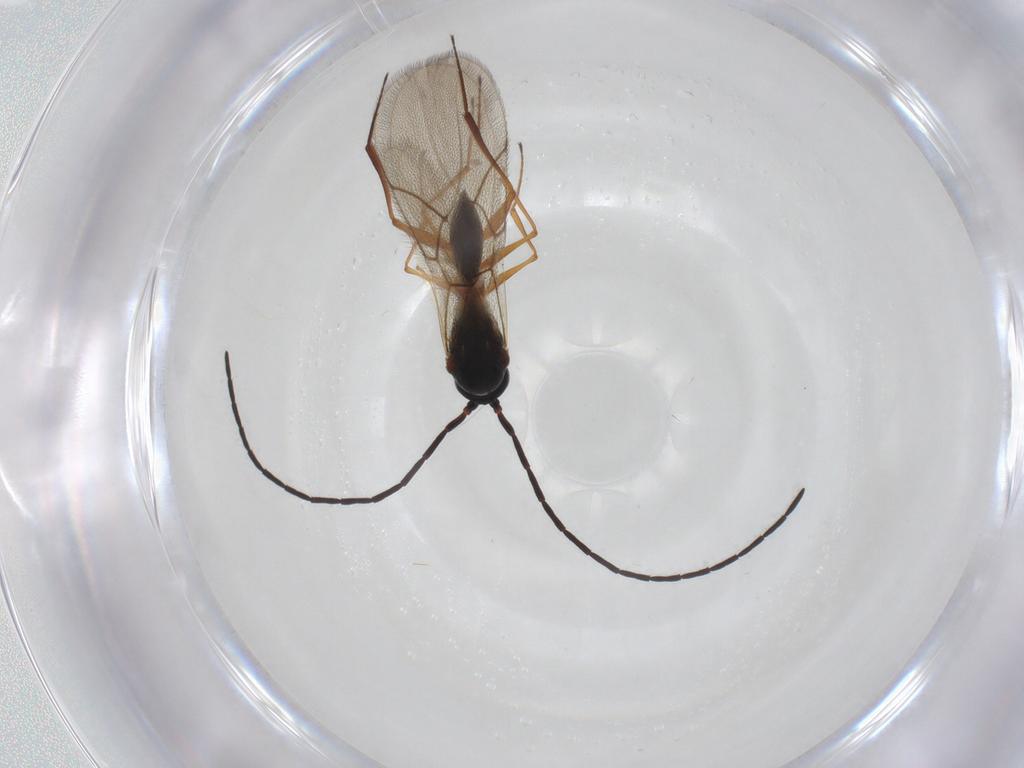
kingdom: Animalia
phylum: Arthropoda
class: Insecta
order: Hymenoptera
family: Figitidae
